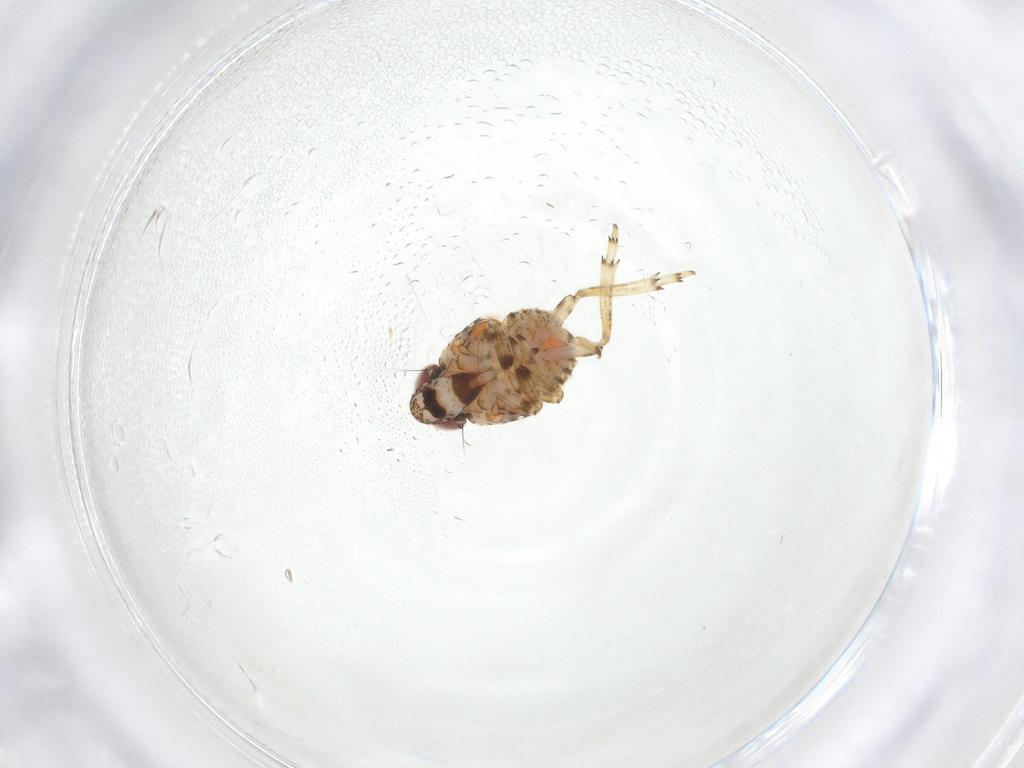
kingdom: Animalia
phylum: Arthropoda
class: Insecta
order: Hemiptera
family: Issidae
